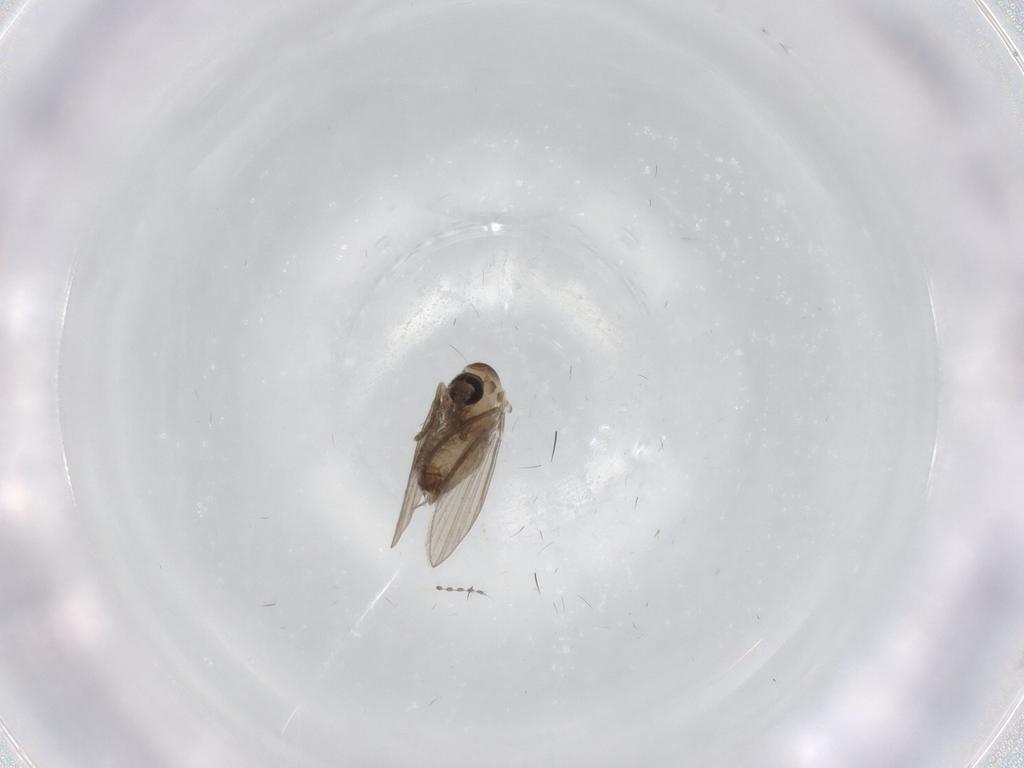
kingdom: Animalia
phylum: Arthropoda
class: Insecta
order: Diptera
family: Psychodidae
